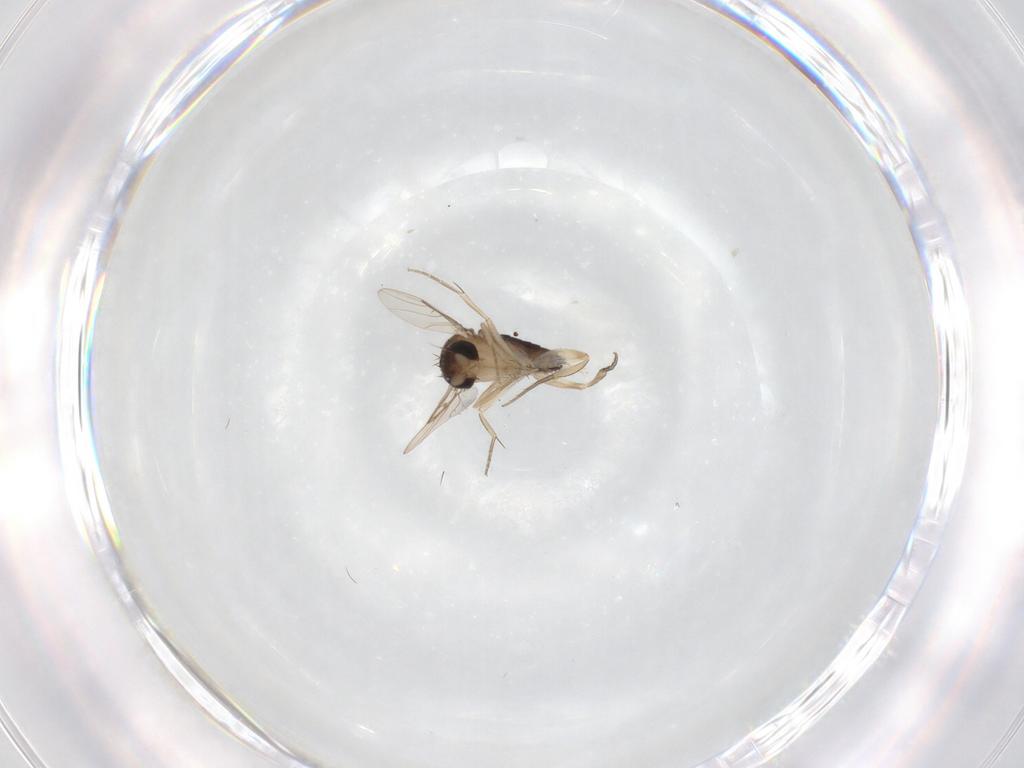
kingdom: Animalia
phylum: Arthropoda
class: Insecta
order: Diptera
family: Phoridae
